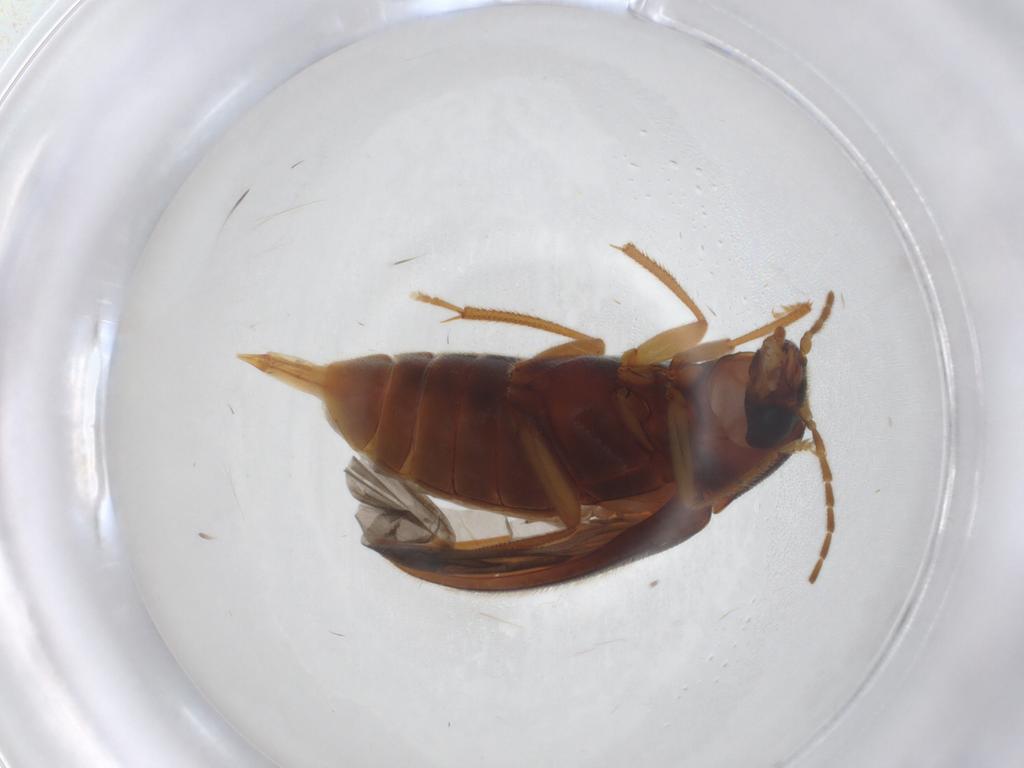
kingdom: Animalia
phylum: Arthropoda
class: Insecta
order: Coleoptera
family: Ptilodactylidae
